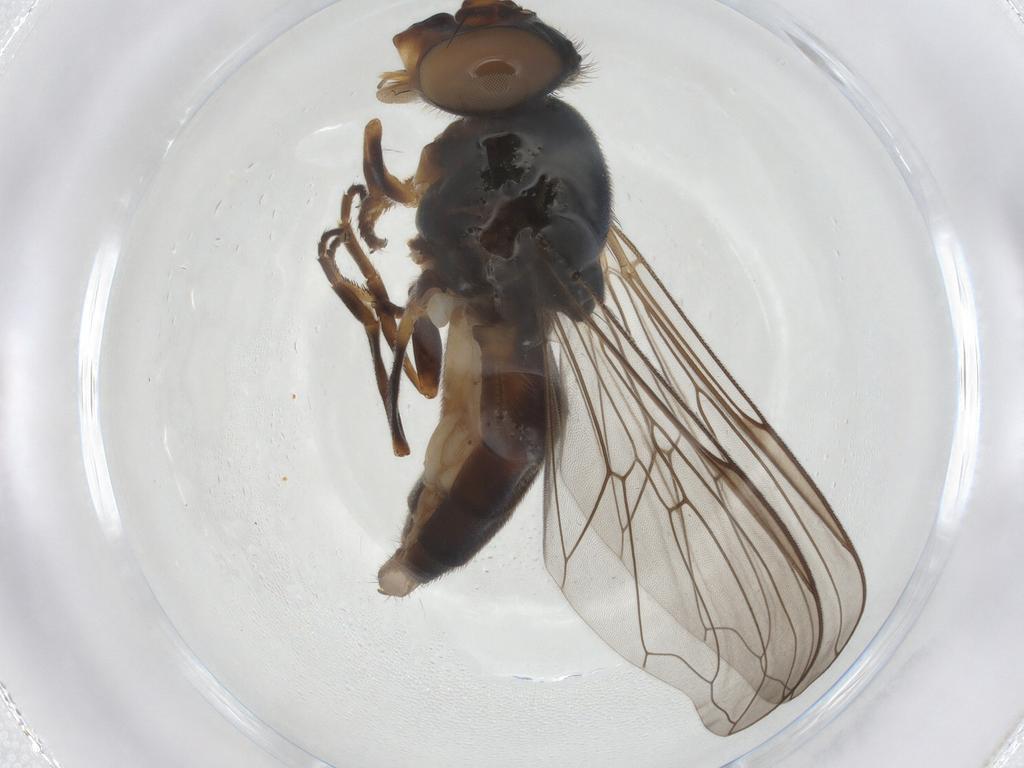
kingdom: Animalia
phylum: Arthropoda
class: Insecta
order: Diptera
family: Syrphidae
